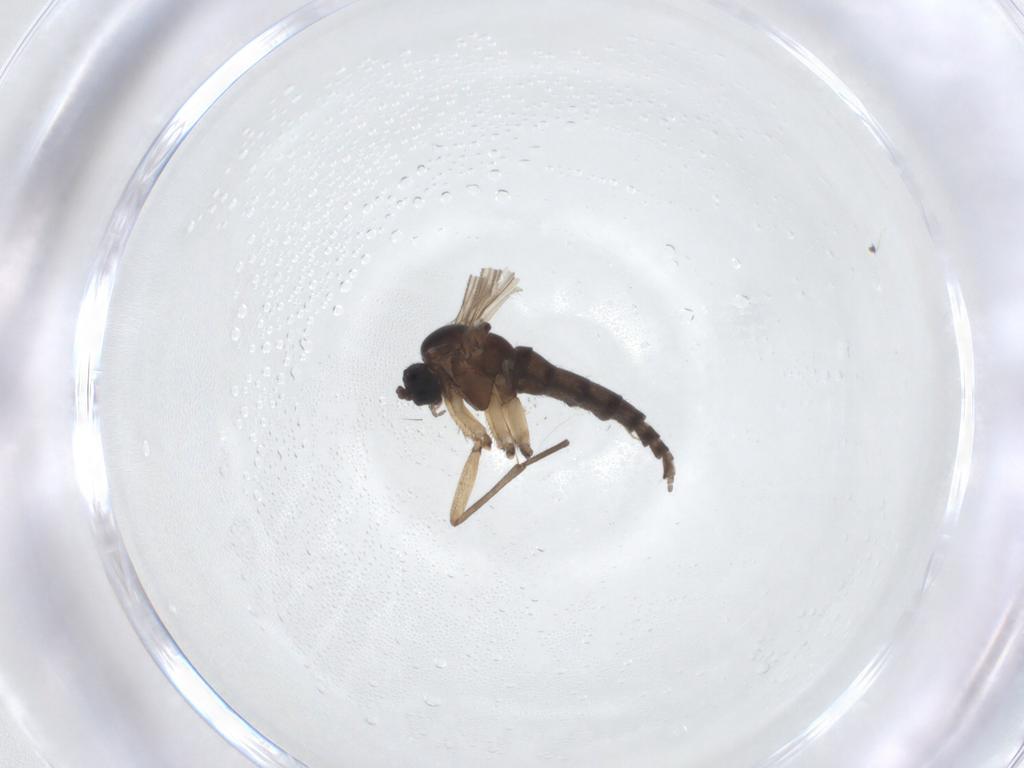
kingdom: Animalia
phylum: Arthropoda
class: Insecta
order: Diptera
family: Sciaridae
